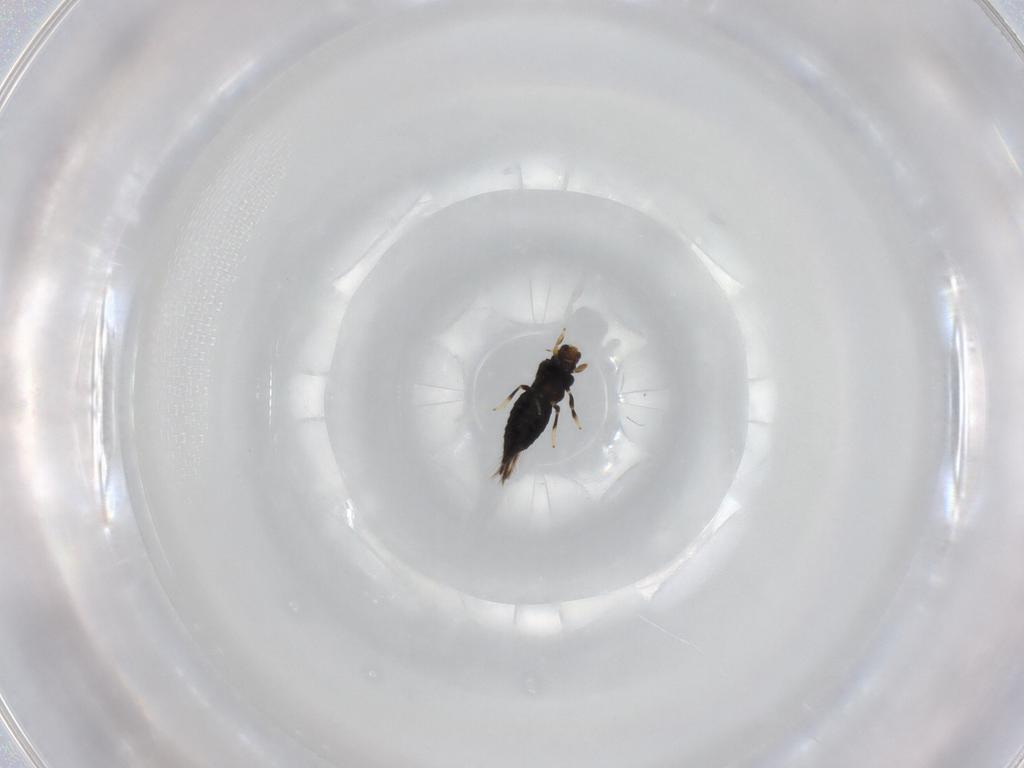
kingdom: Animalia
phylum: Arthropoda
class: Insecta
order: Thysanoptera
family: Thripidae
